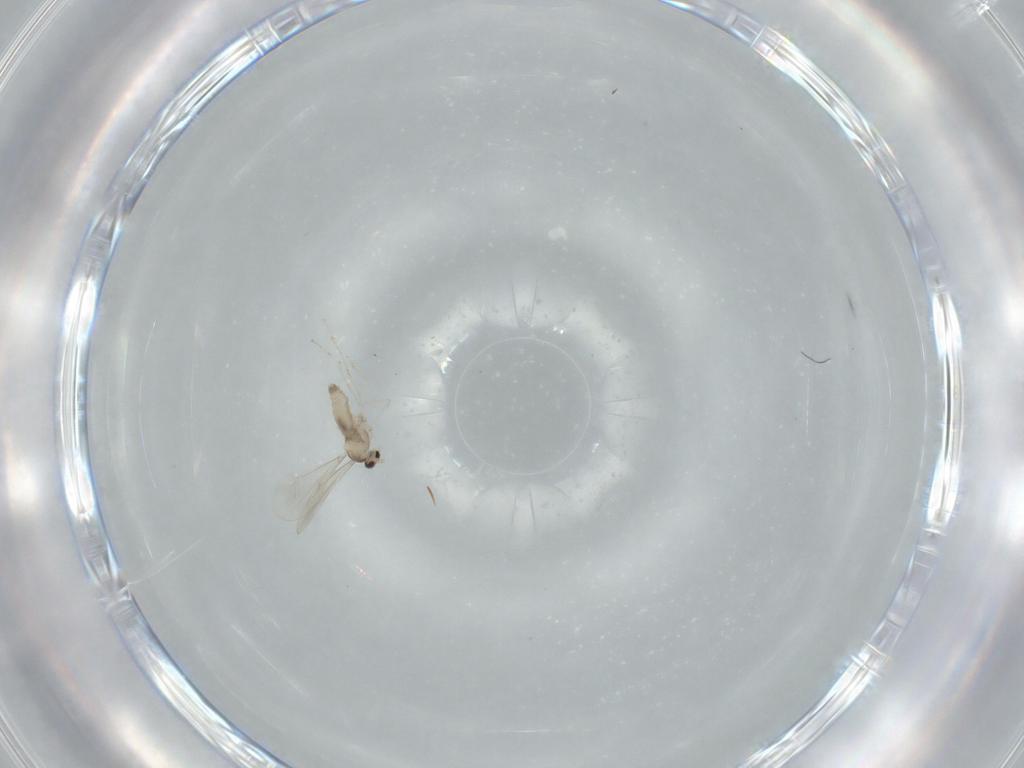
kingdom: Animalia
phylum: Arthropoda
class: Insecta
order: Diptera
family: Cecidomyiidae
